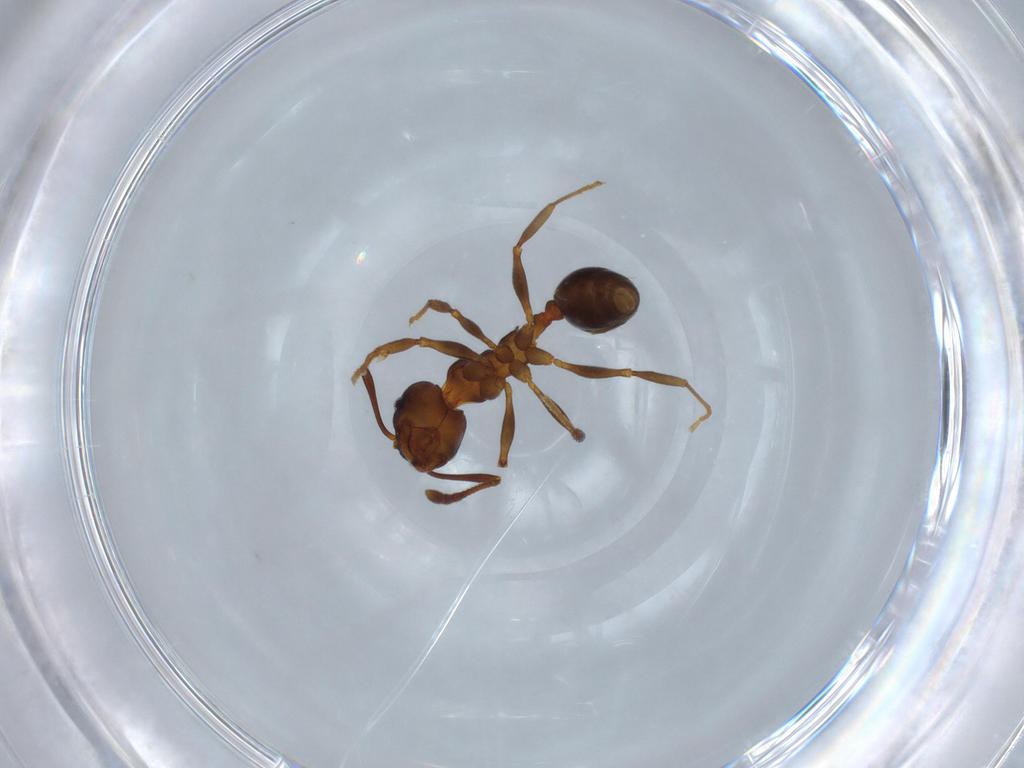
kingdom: Animalia
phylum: Arthropoda
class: Insecta
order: Hymenoptera
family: Formicidae
